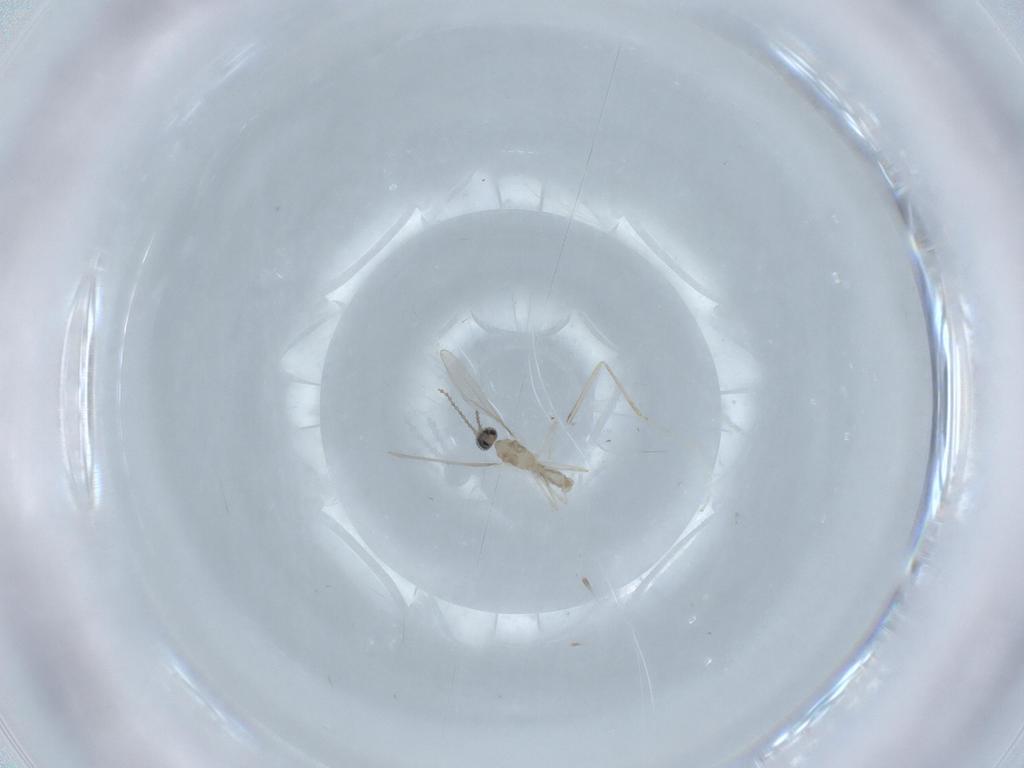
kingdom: Animalia
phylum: Arthropoda
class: Insecta
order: Diptera
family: Cecidomyiidae
